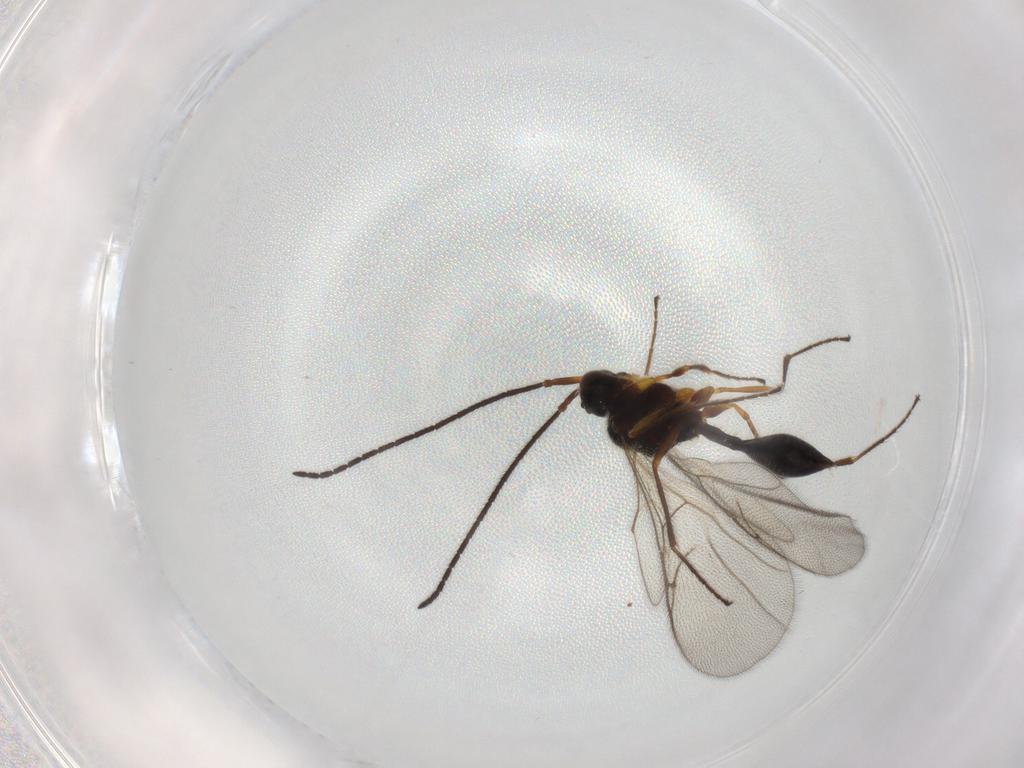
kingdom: Animalia
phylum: Arthropoda
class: Insecta
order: Hymenoptera
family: Diapriidae
